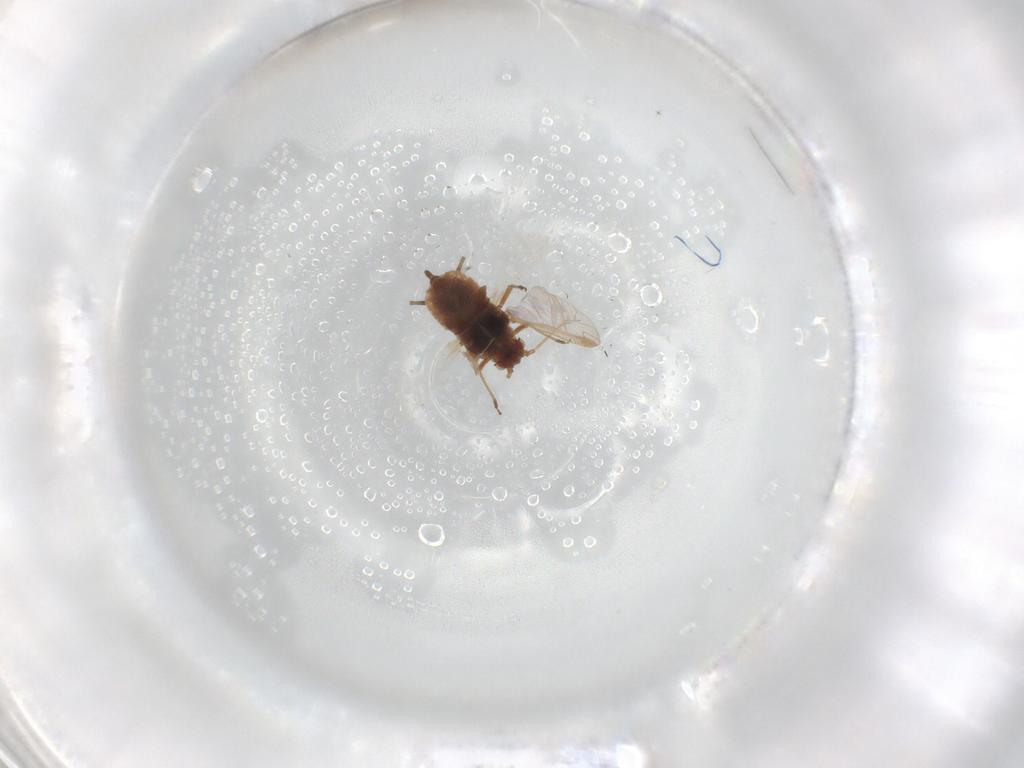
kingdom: Animalia
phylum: Arthropoda
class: Insecta
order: Hemiptera
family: Aphididae
